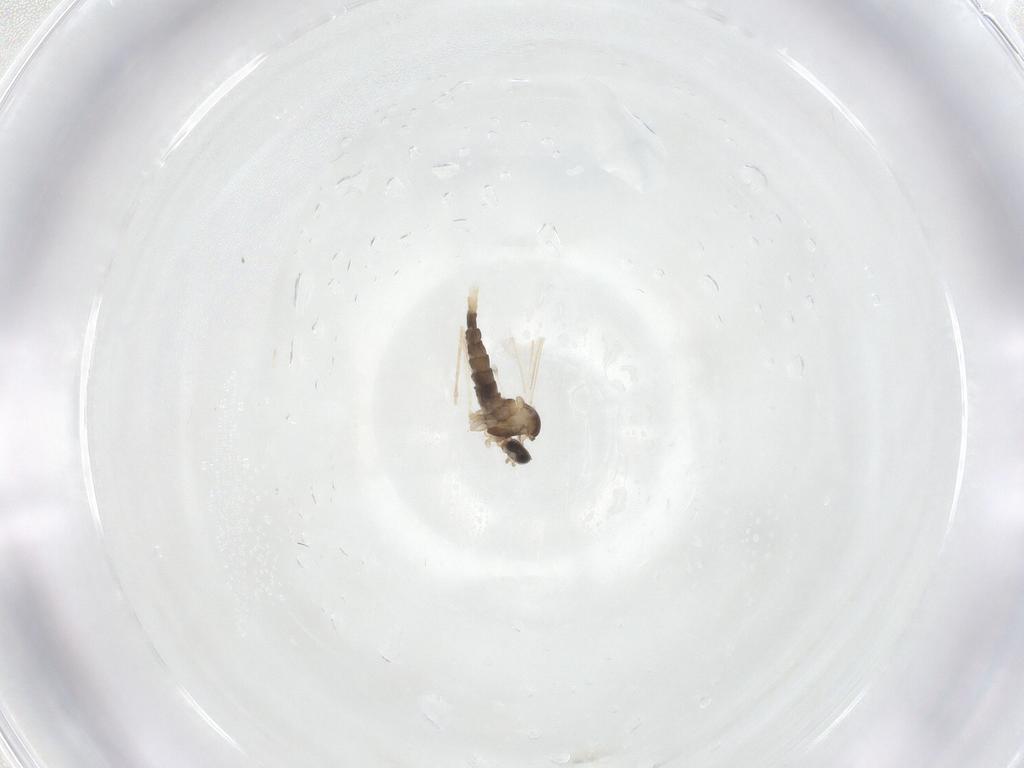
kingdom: Animalia
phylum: Arthropoda
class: Insecta
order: Diptera
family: Cecidomyiidae
